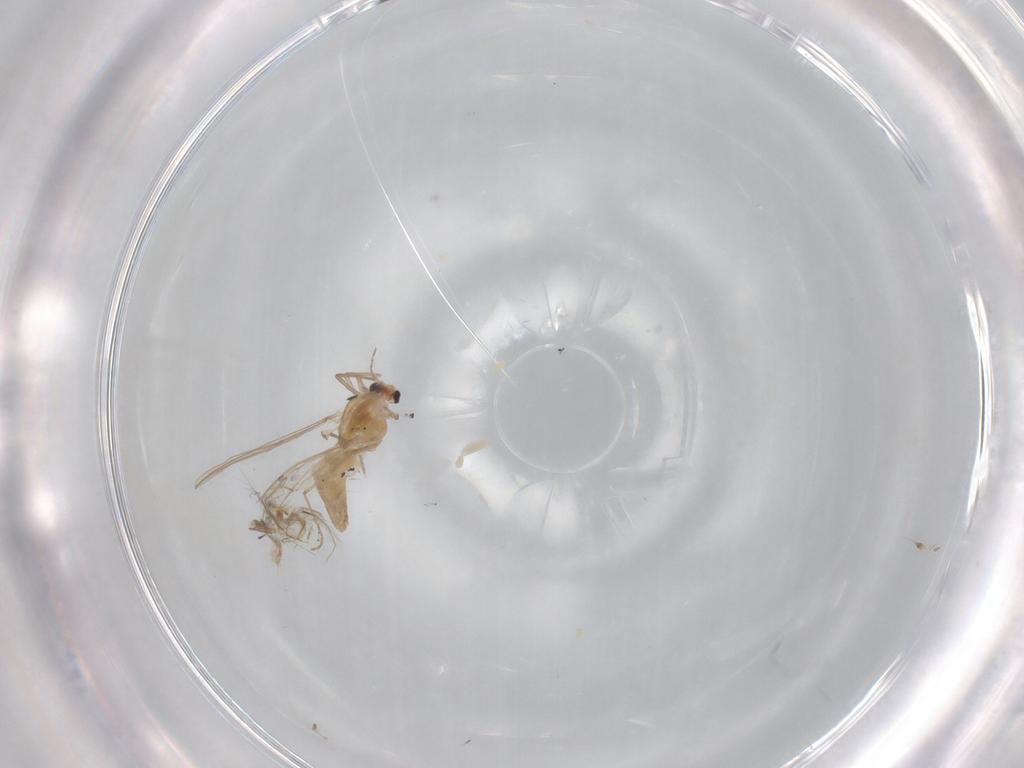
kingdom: Animalia
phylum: Arthropoda
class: Insecta
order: Diptera
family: Chironomidae
